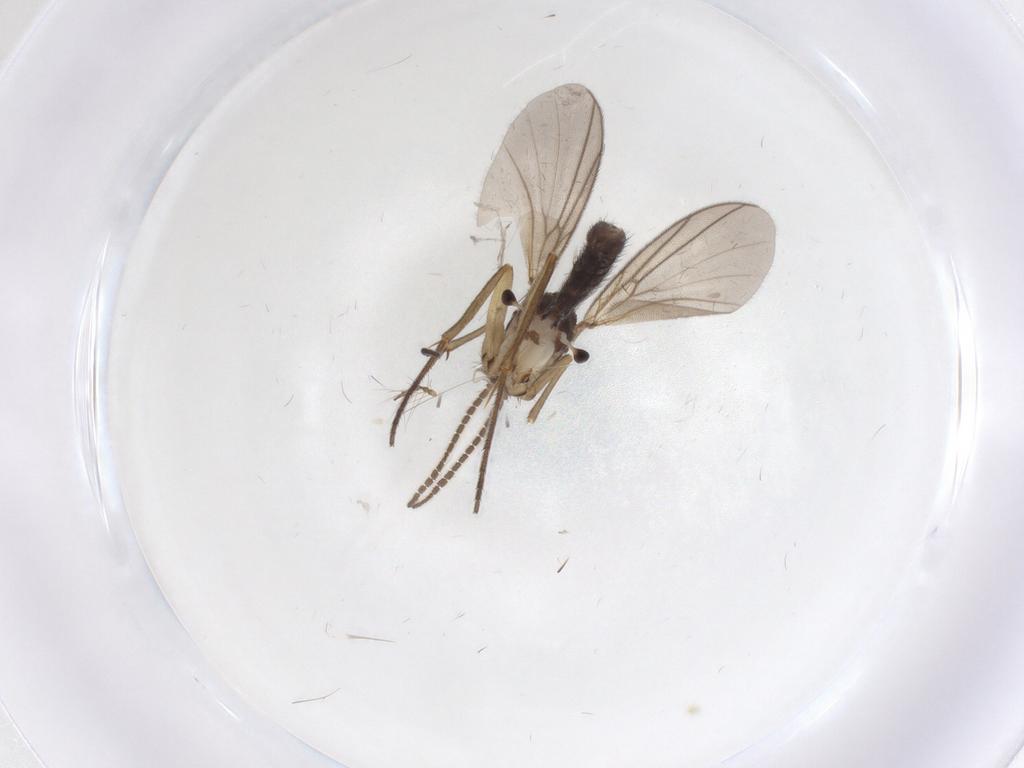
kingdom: Animalia
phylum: Arthropoda
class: Insecta
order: Diptera
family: Mycetophilidae
